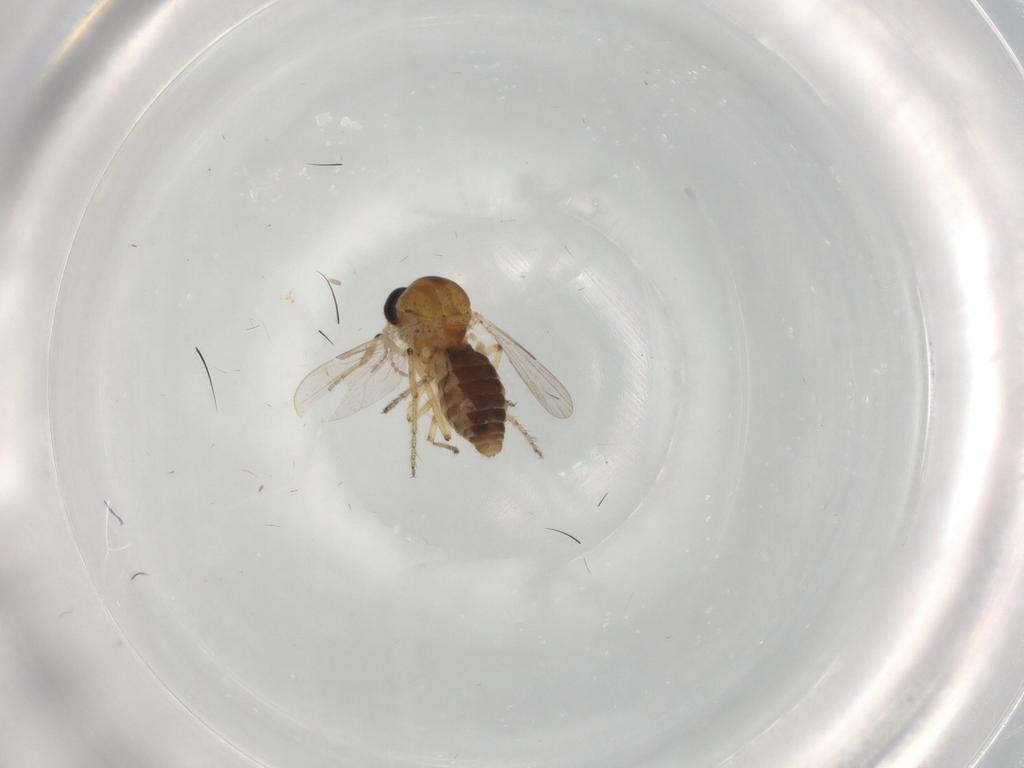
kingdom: Animalia
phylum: Arthropoda
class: Insecta
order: Diptera
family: Ceratopogonidae
